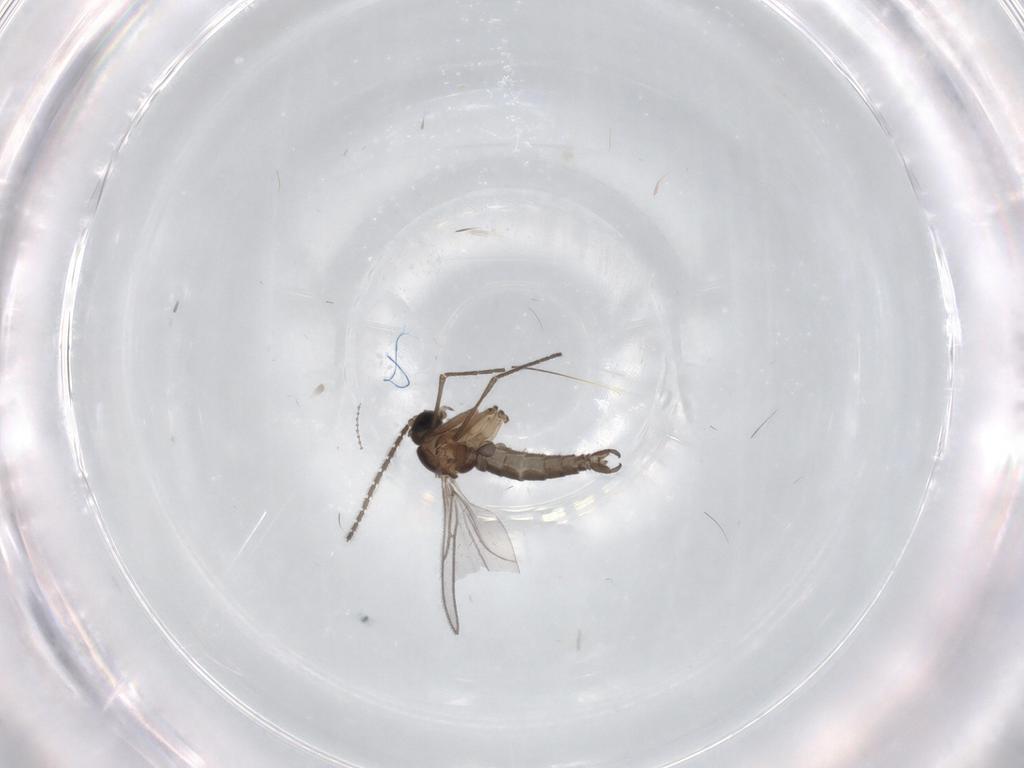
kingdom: Animalia
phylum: Arthropoda
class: Insecta
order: Diptera
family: Sciaridae
